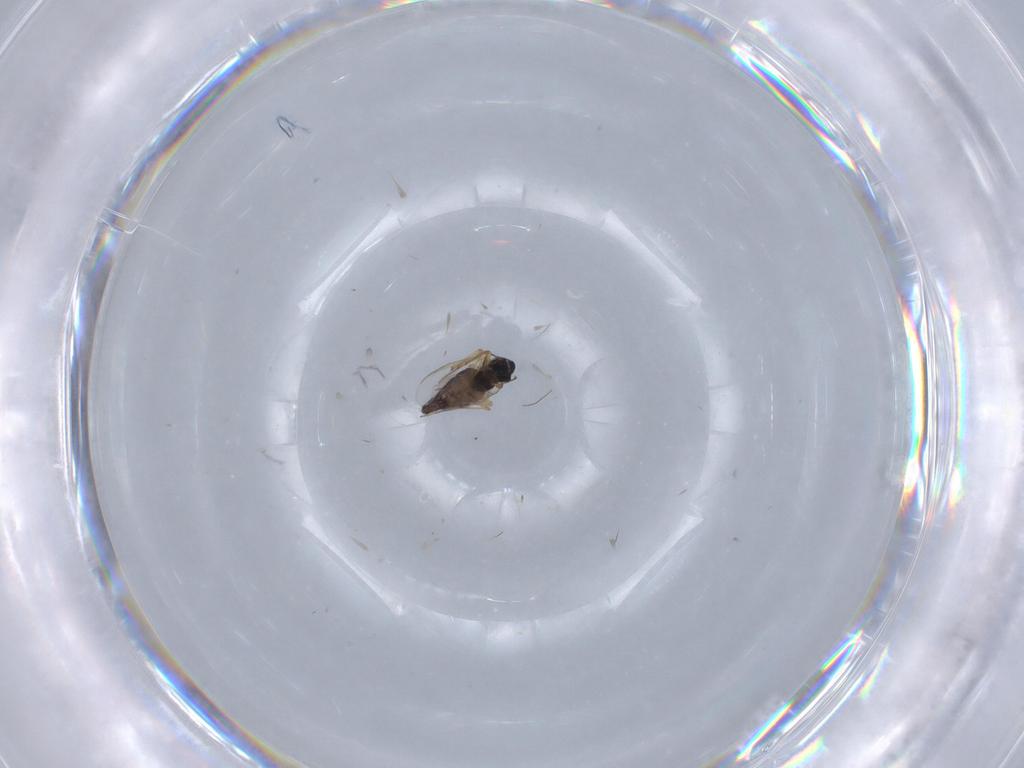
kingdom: Animalia
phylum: Arthropoda
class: Insecta
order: Diptera
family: Chironomidae
